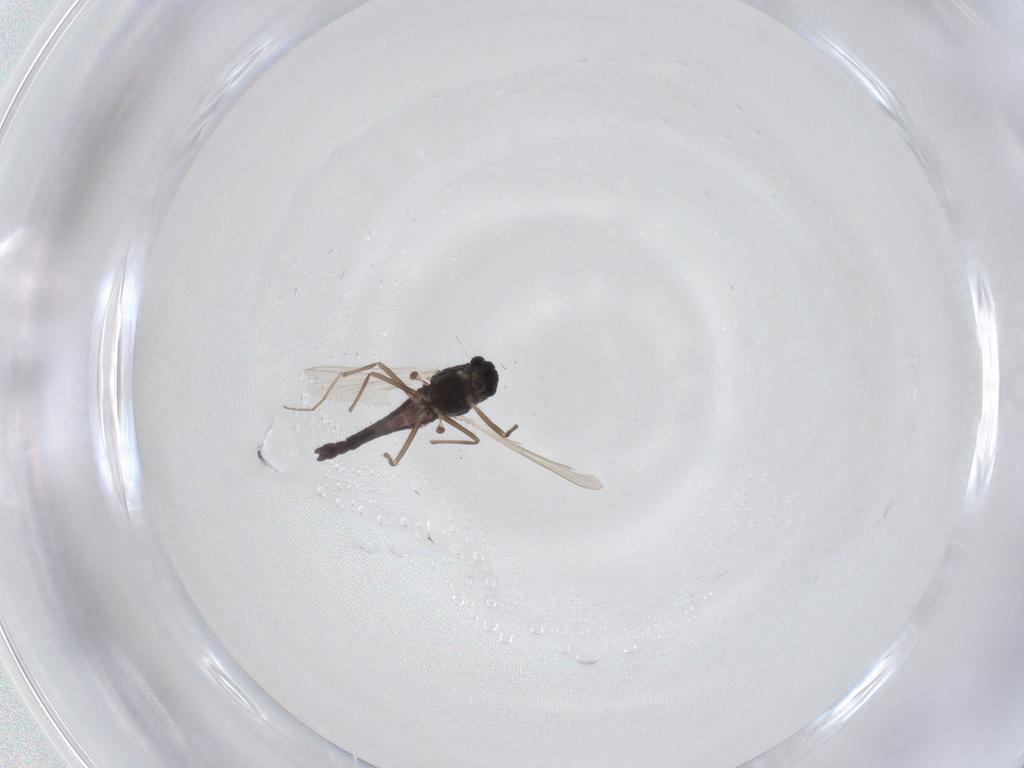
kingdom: Animalia
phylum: Arthropoda
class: Insecta
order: Diptera
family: Chironomidae
